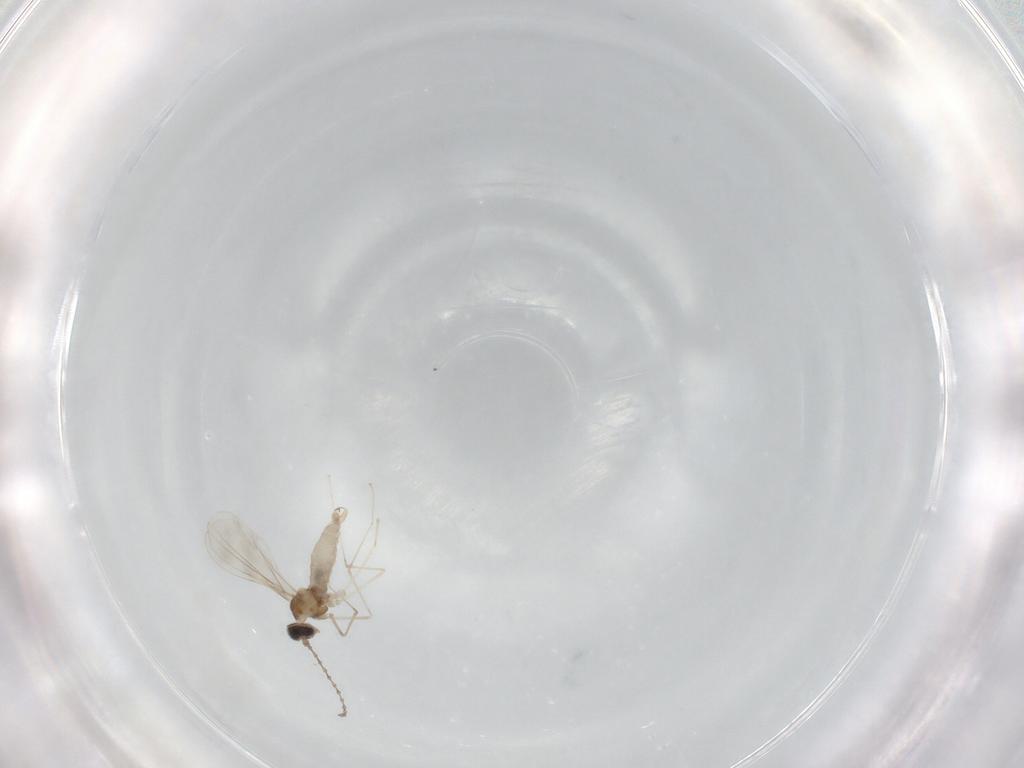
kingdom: Animalia
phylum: Arthropoda
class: Insecta
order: Diptera
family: Cecidomyiidae
